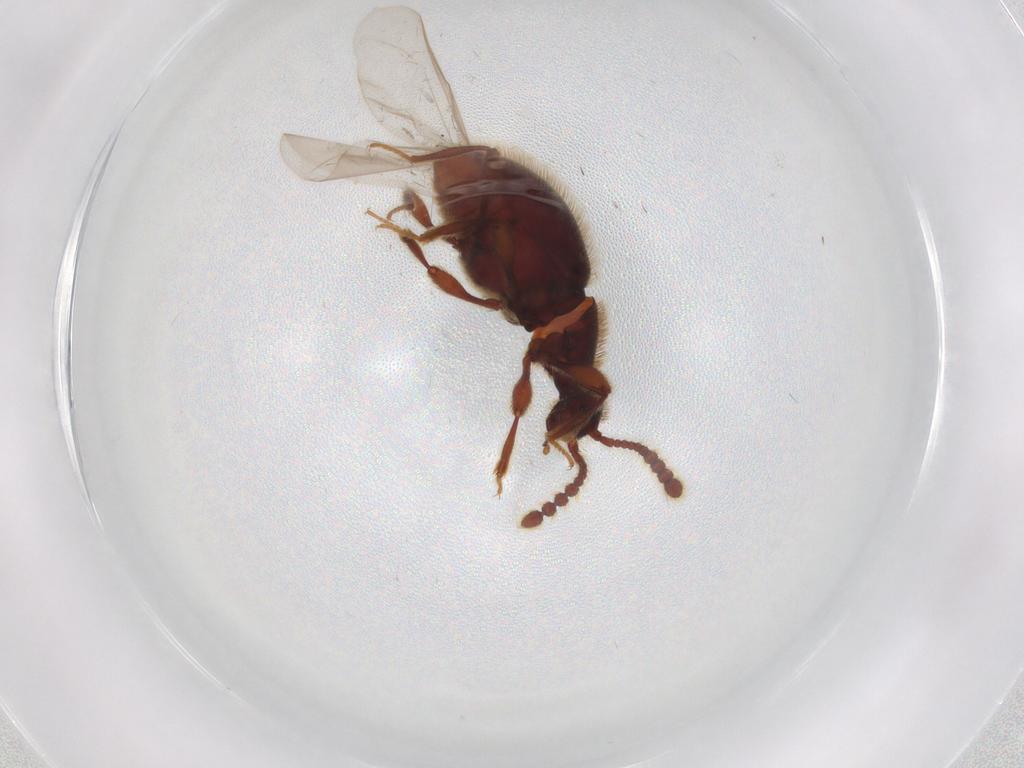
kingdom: Animalia
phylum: Arthropoda
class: Insecta
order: Coleoptera
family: Staphylinidae
